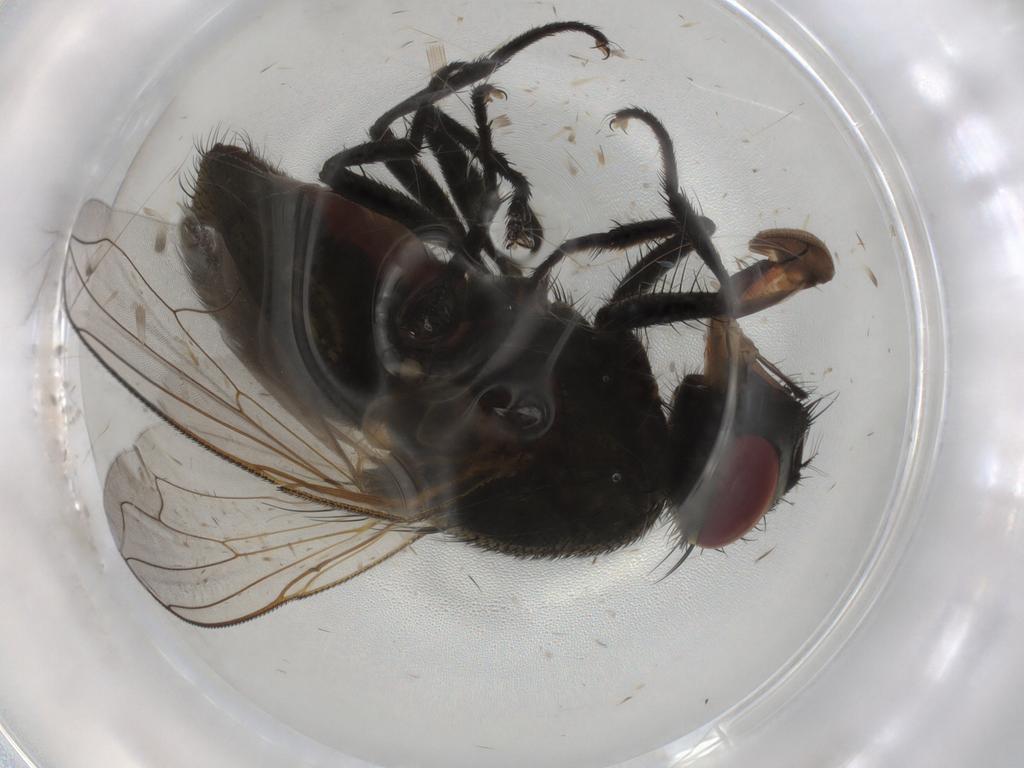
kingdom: Animalia
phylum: Arthropoda
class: Insecta
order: Diptera
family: Muscidae
